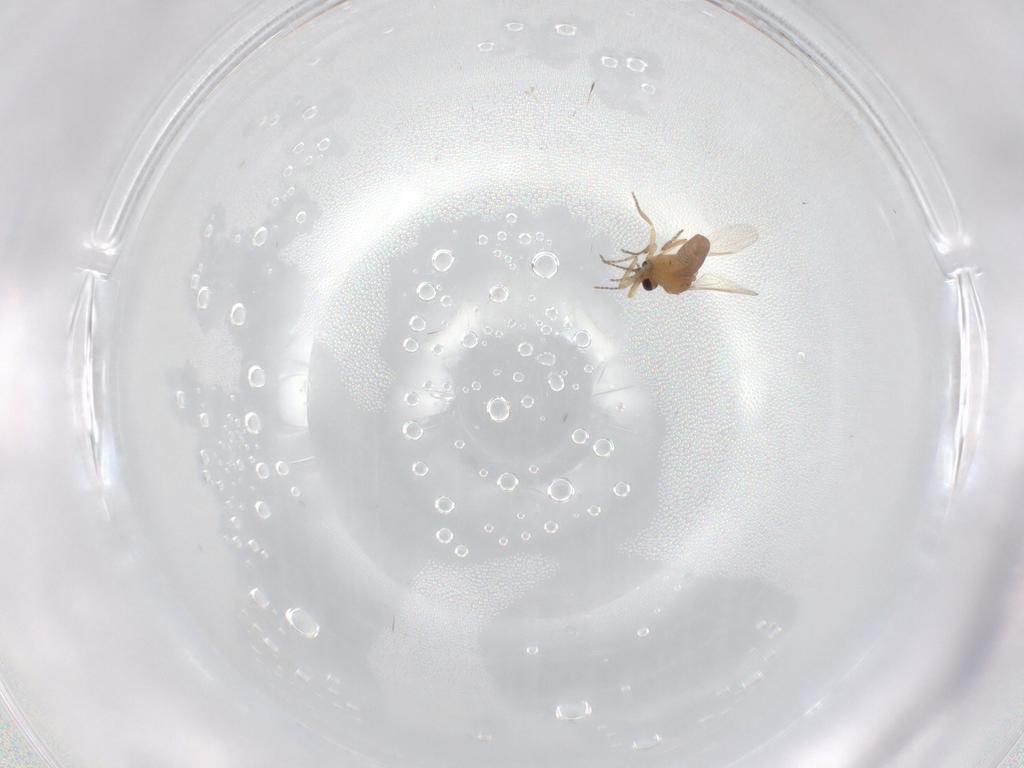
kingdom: Animalia
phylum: Arthropoda
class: Insecta
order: Diptera
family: Ceratopogonidae
